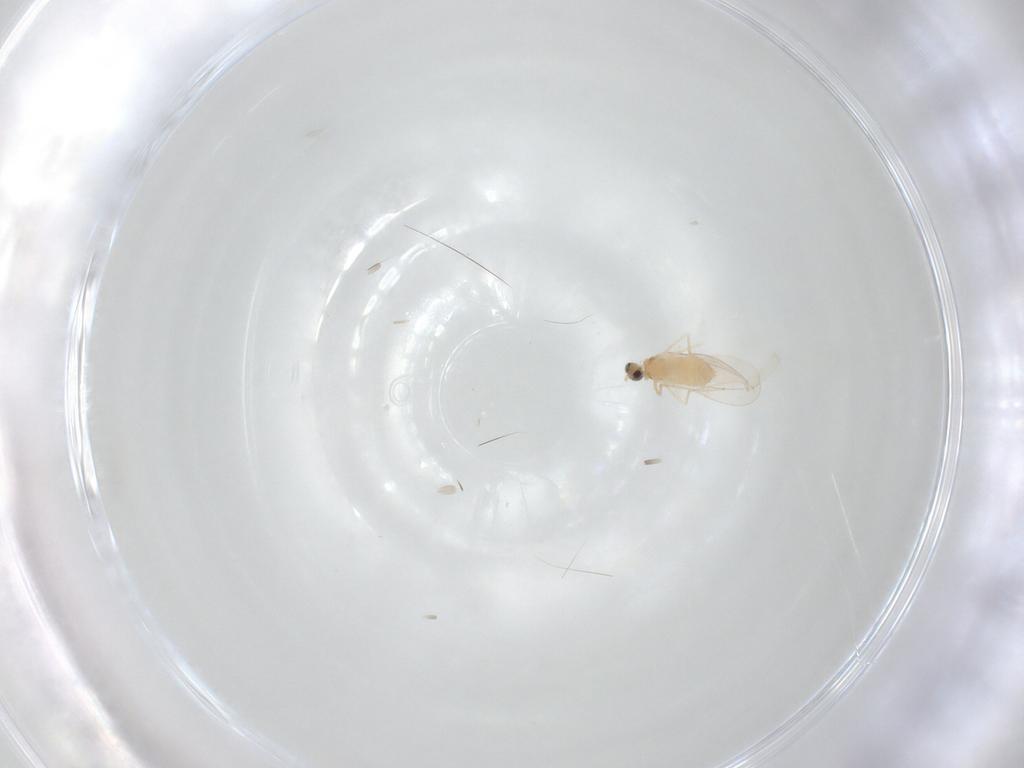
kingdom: Animalia
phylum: Arthropoda
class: Insecta
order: Diptera
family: Cecidomyiidae
